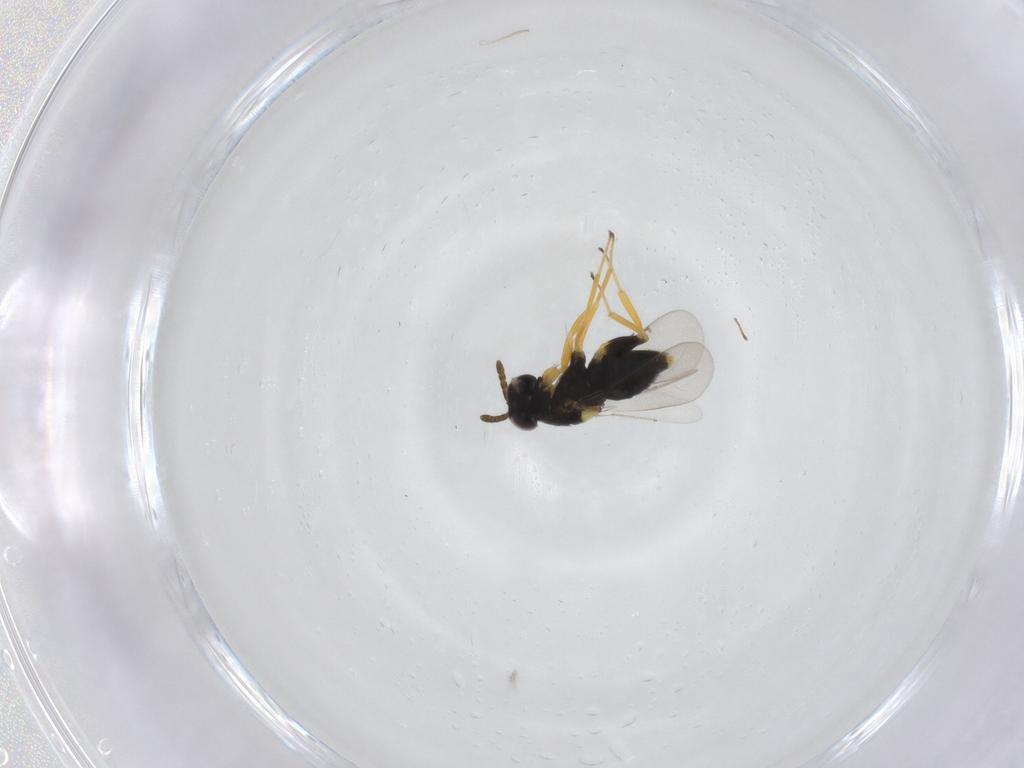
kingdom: Animalia
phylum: Arthropoda
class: Insecta
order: Hymenoptera
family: Aphelinidae
